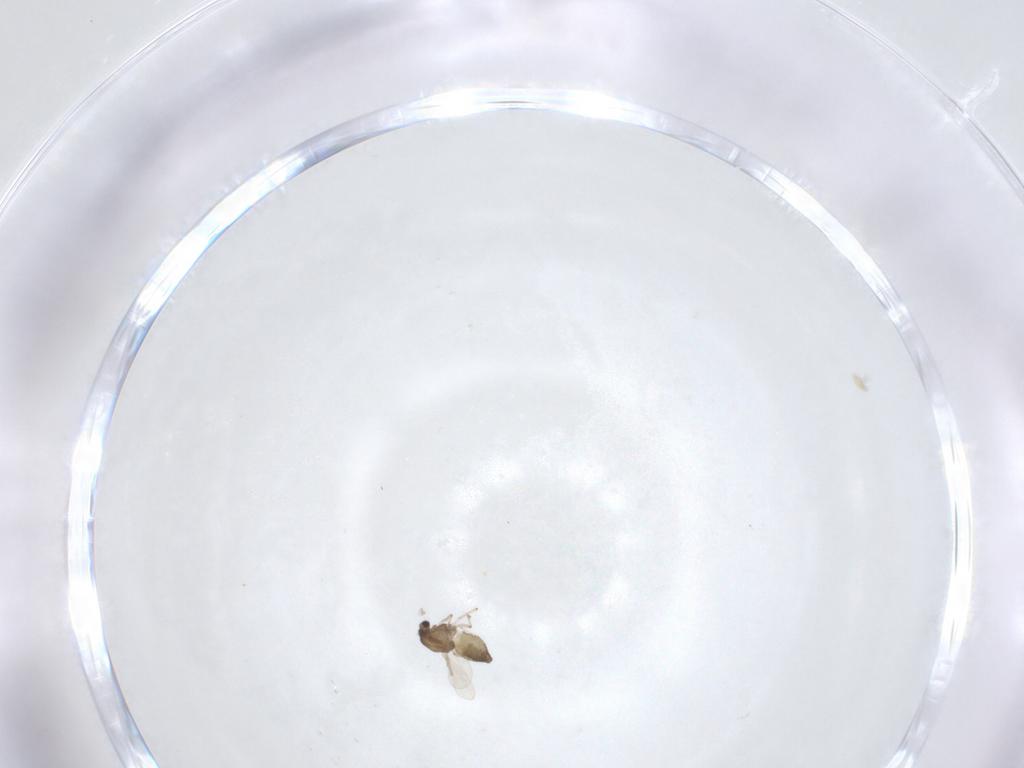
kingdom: Animalia
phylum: Arthropoda
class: Insecta
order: Diptera
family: Chironomidae
